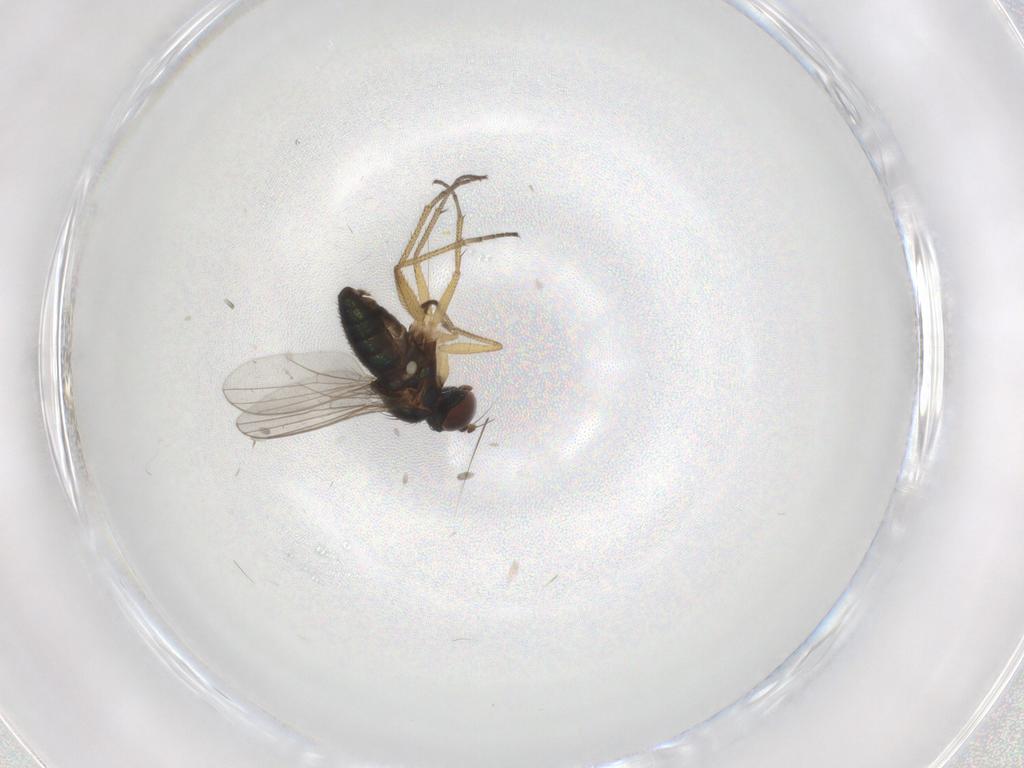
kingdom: Animalia
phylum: Arthropoda
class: Insecta
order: Diptera
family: Dolichopodidae
